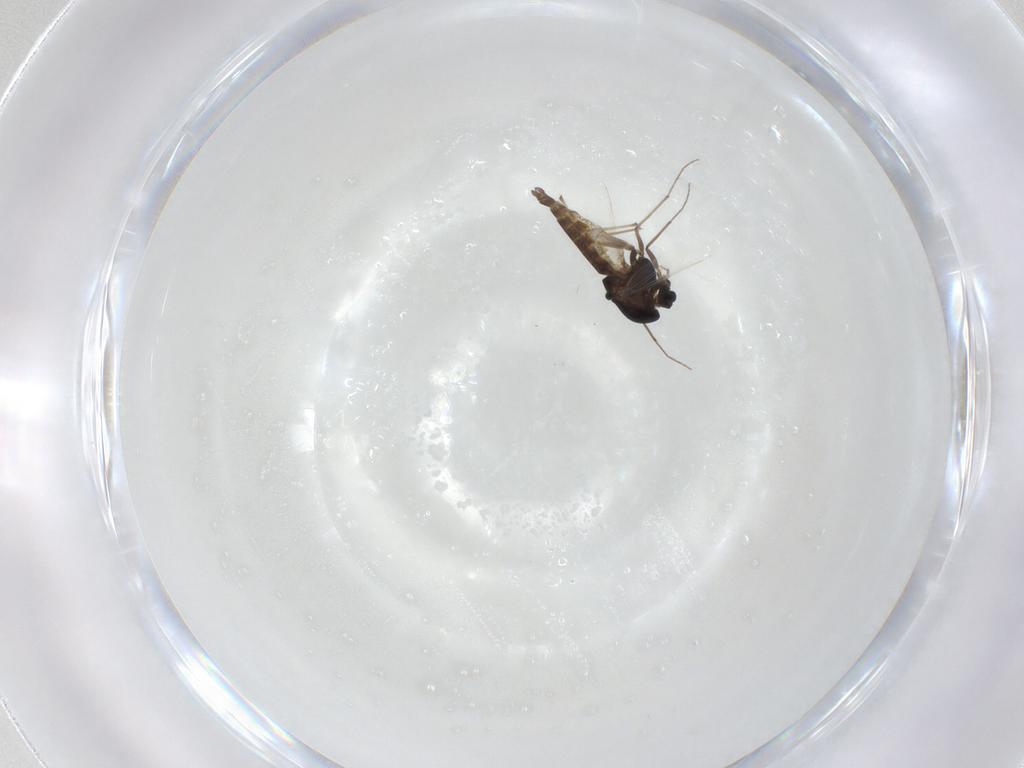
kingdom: Animalia
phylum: Arthropoda
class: Insecta
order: Diptera
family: Chironomidae
